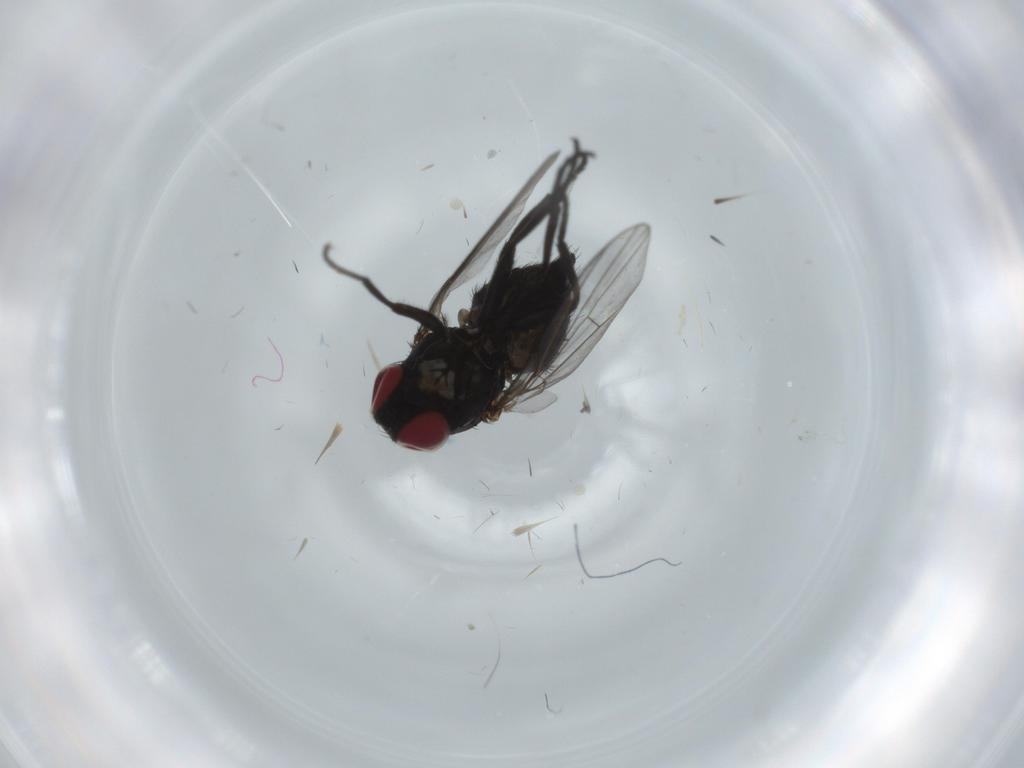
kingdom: Animalia
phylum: Arthropoda
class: Insecta
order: Diptera
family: Agromyzidae
